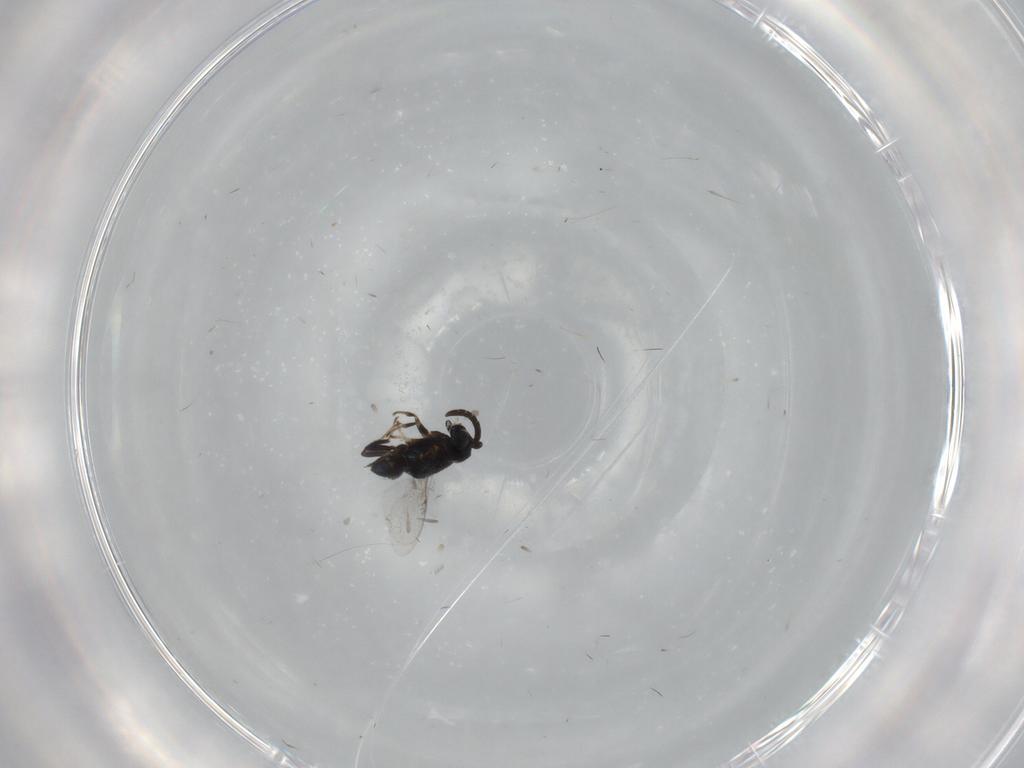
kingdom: Animalia
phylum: Arthropoda
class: Insecta
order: Hymenoptera
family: Encyrtidae
